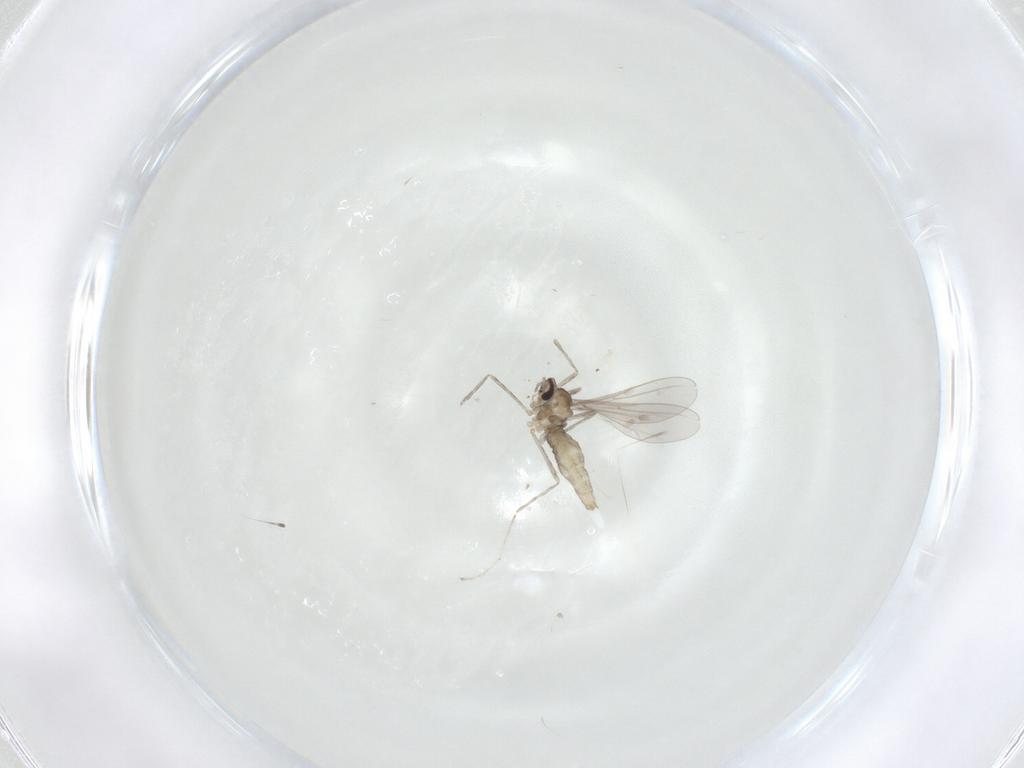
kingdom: Animalia
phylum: Arthropoda
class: Insecta
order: Diptera
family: Cecidomyiidae
